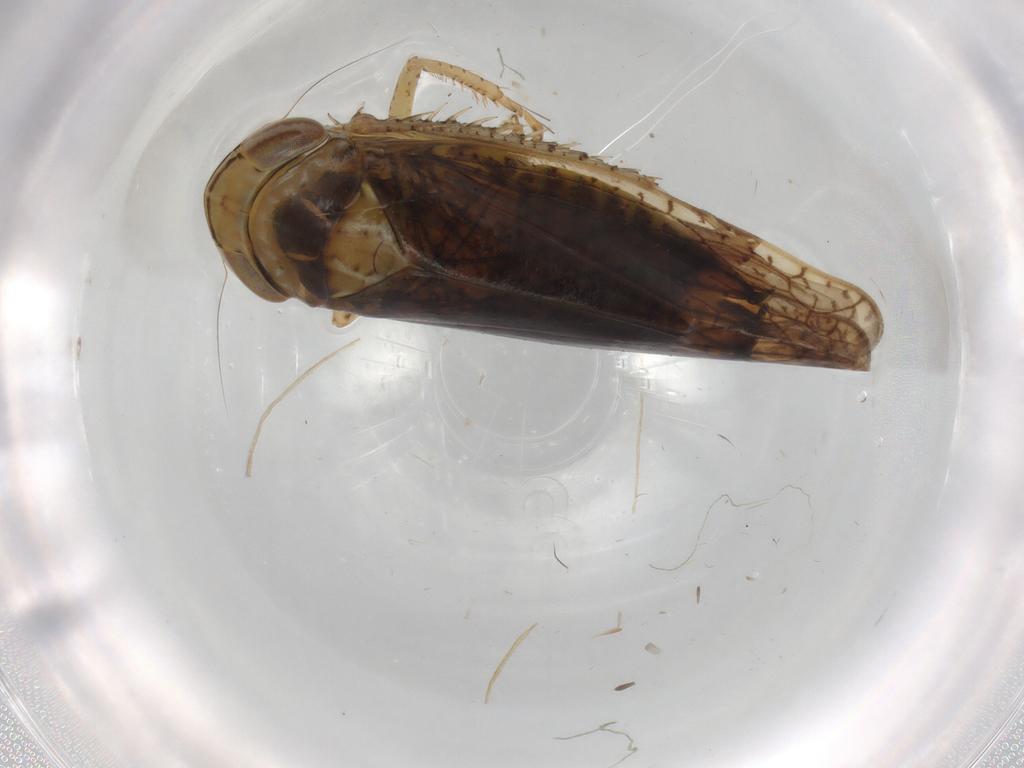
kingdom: Animalia
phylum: Arthropoda
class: Insecta
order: Hemiptera
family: Cicadellidae
